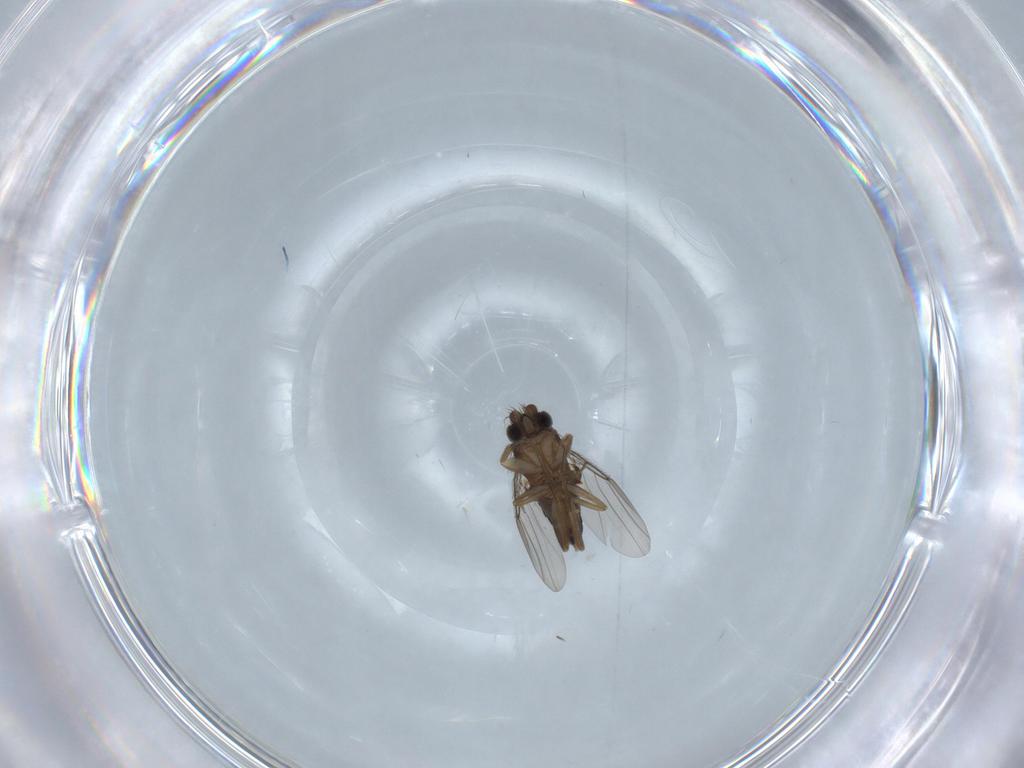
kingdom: Animalia
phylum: Arthropoda
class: Insecta
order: Diptera
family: Phoridae
